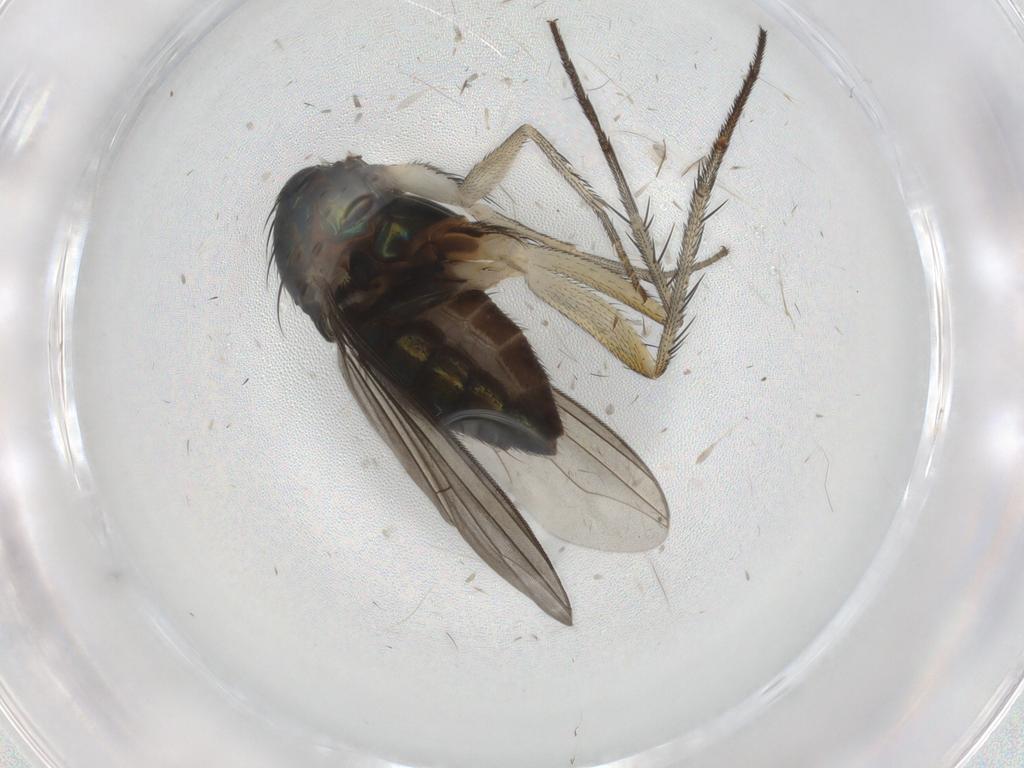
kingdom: Animalia
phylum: Arthropoda
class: Insecta
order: Diptera
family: Dolichopodidae
